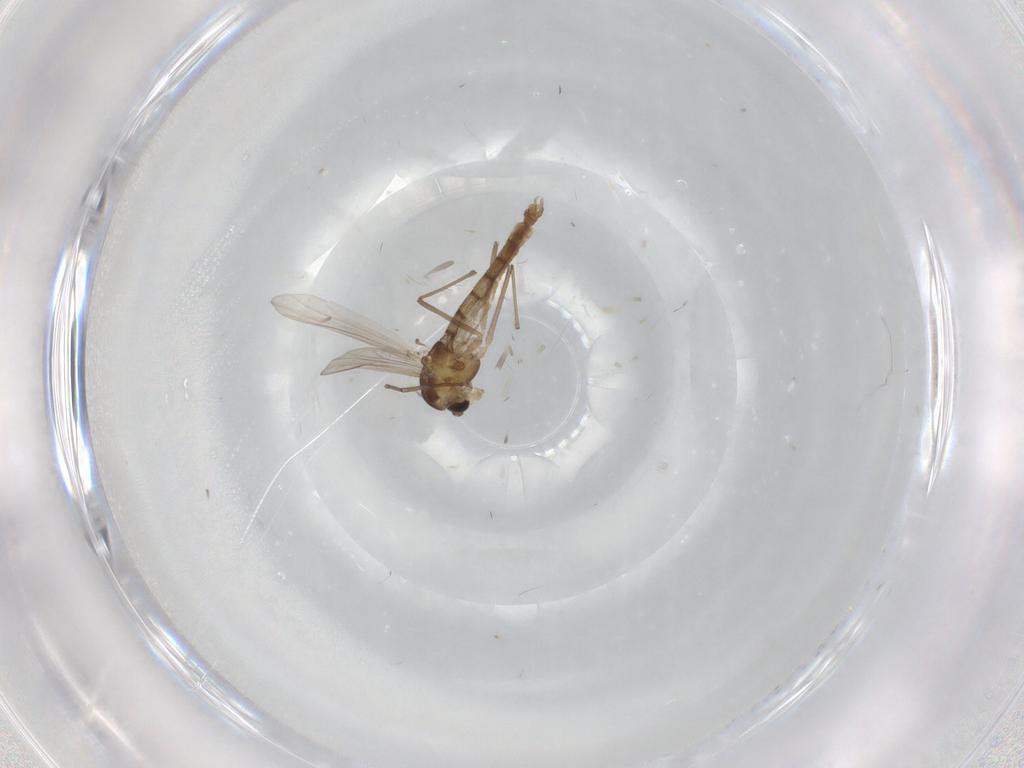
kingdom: Animalia
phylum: Arthropoda
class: Insecta
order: Diptera
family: Chironomidae
